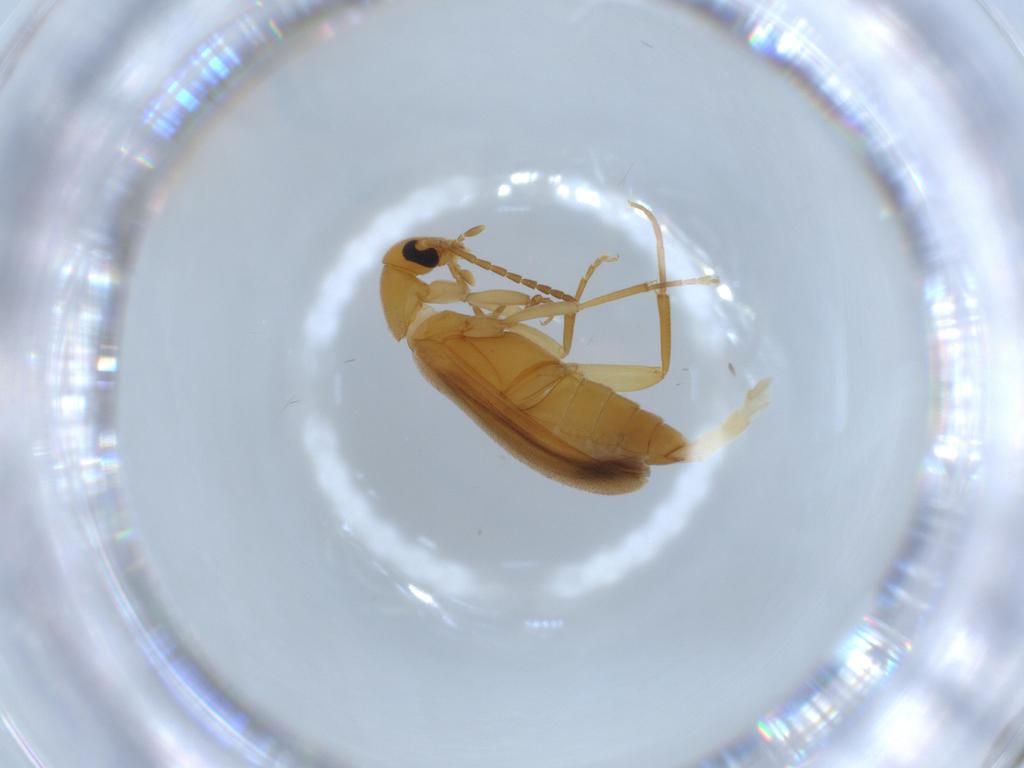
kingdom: Animalia
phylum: Arthropoda
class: Insecta
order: Coleoptera
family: Scraptiidae
